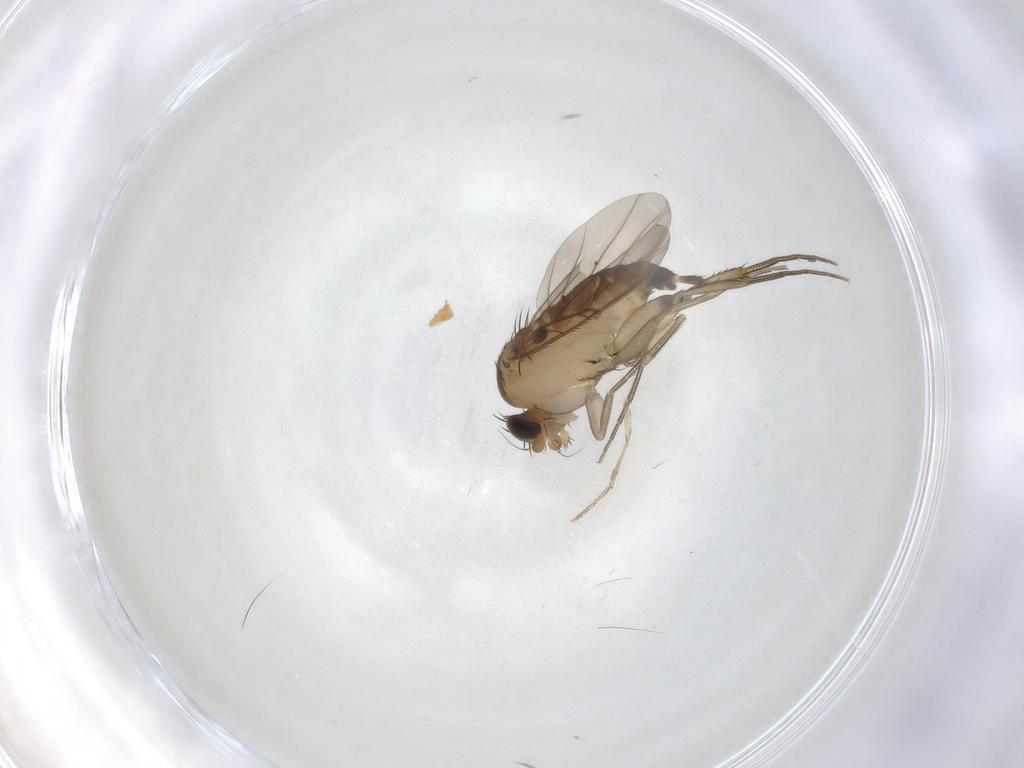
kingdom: Animalia
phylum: Arthropoda
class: Insecta
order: Diptera
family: Phoridae
